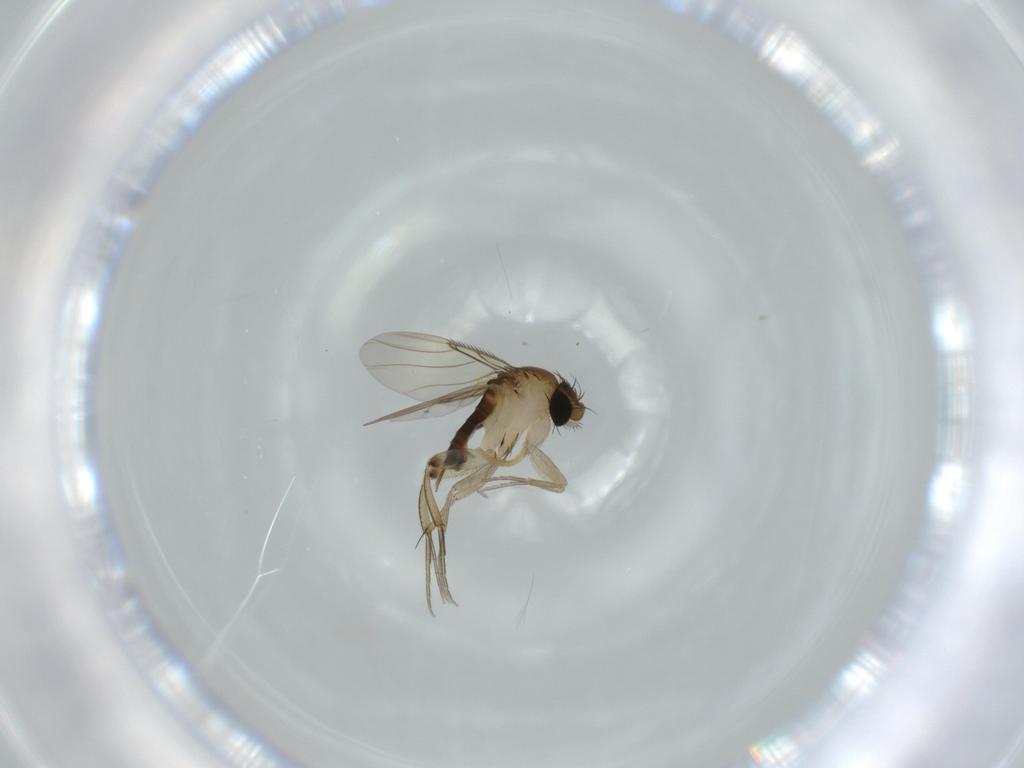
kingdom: Animalia
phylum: Arthropoda
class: Insecta
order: Diptera
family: Phoridae
